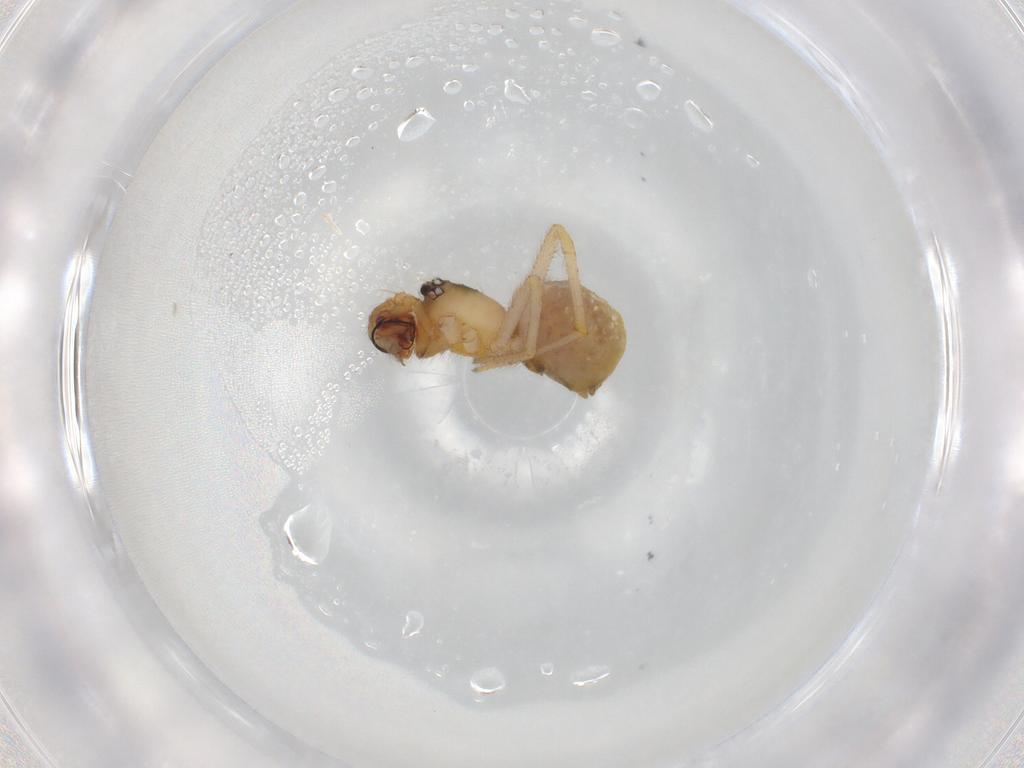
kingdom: Animalia
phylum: Arthropoda
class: Arachnida
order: Araneae
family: Theridiidae
